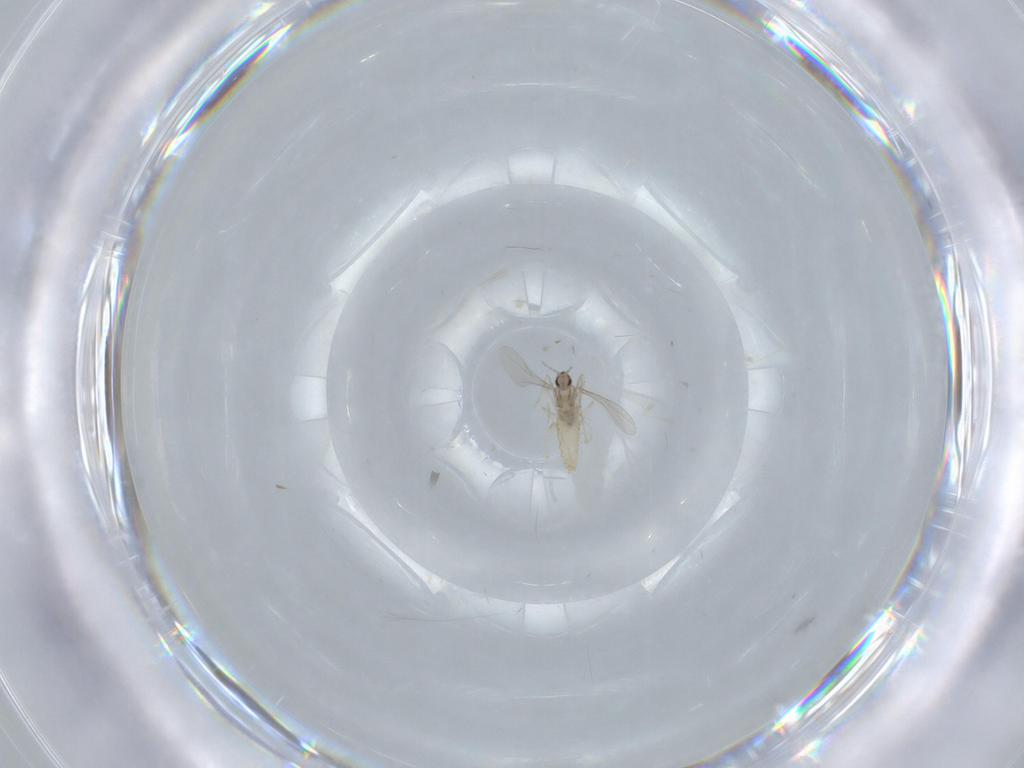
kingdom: Animalia
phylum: Arthropoda
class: Insecta
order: Diptera
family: Cecidomyiidae
